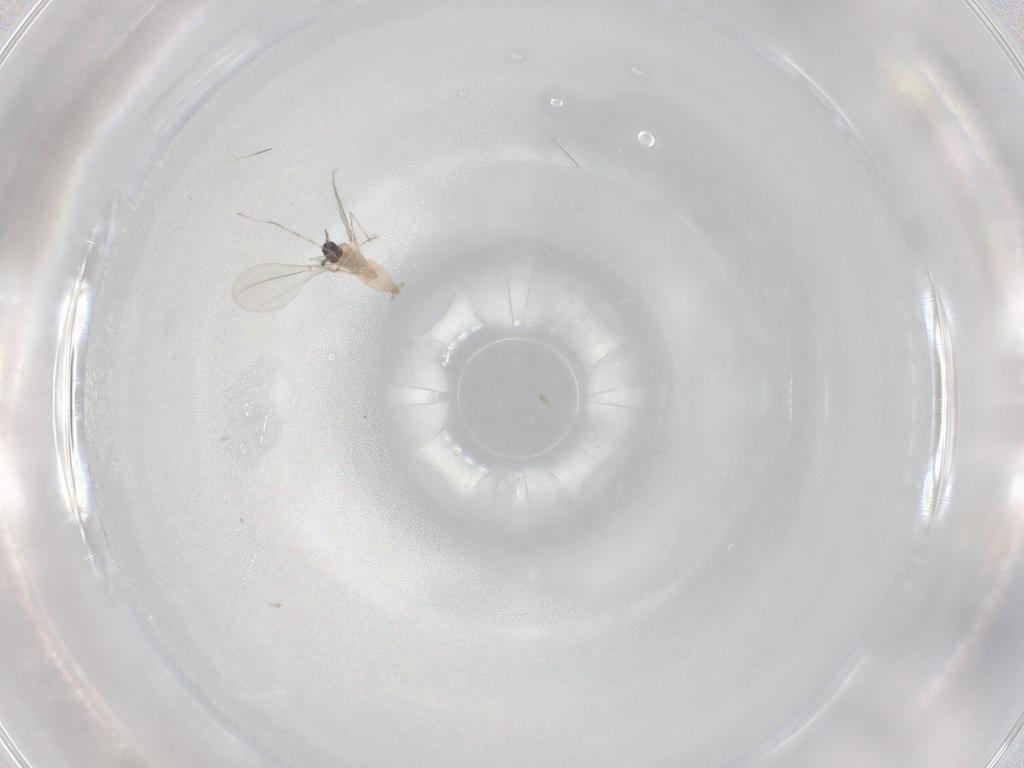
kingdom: Animalia
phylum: Arthropoda
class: Insecta
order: Diptera
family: Cecidomyiidae
